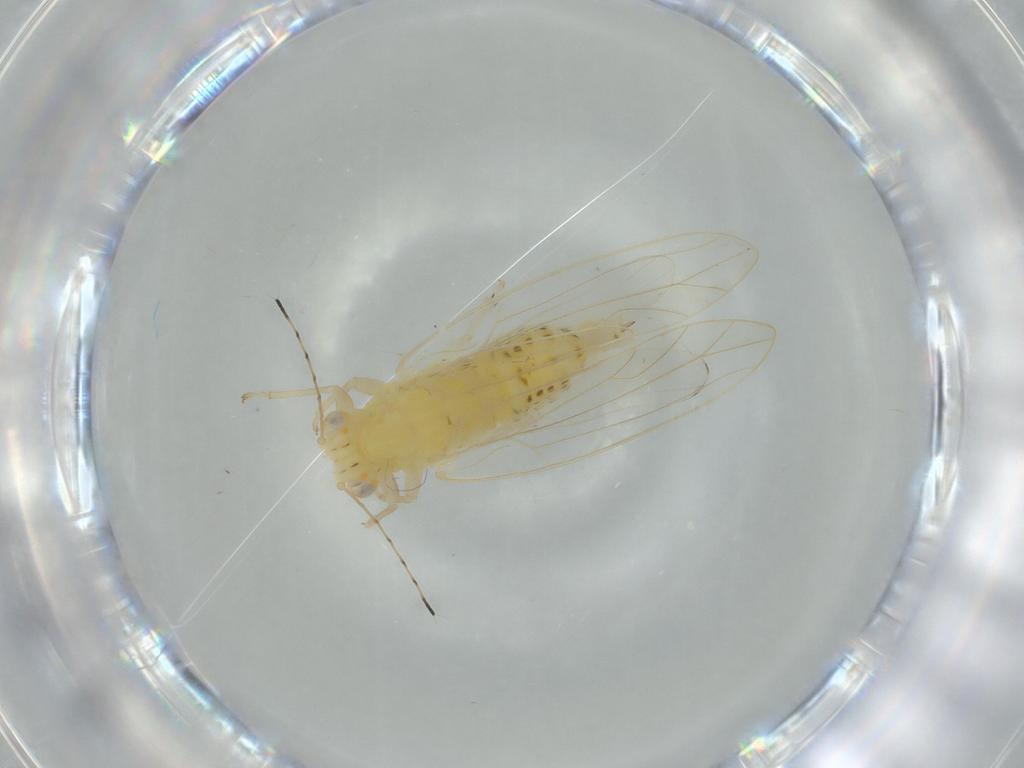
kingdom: Animalia
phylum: Arthropoda
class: Insecta
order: Hemiptera
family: Triozidae
